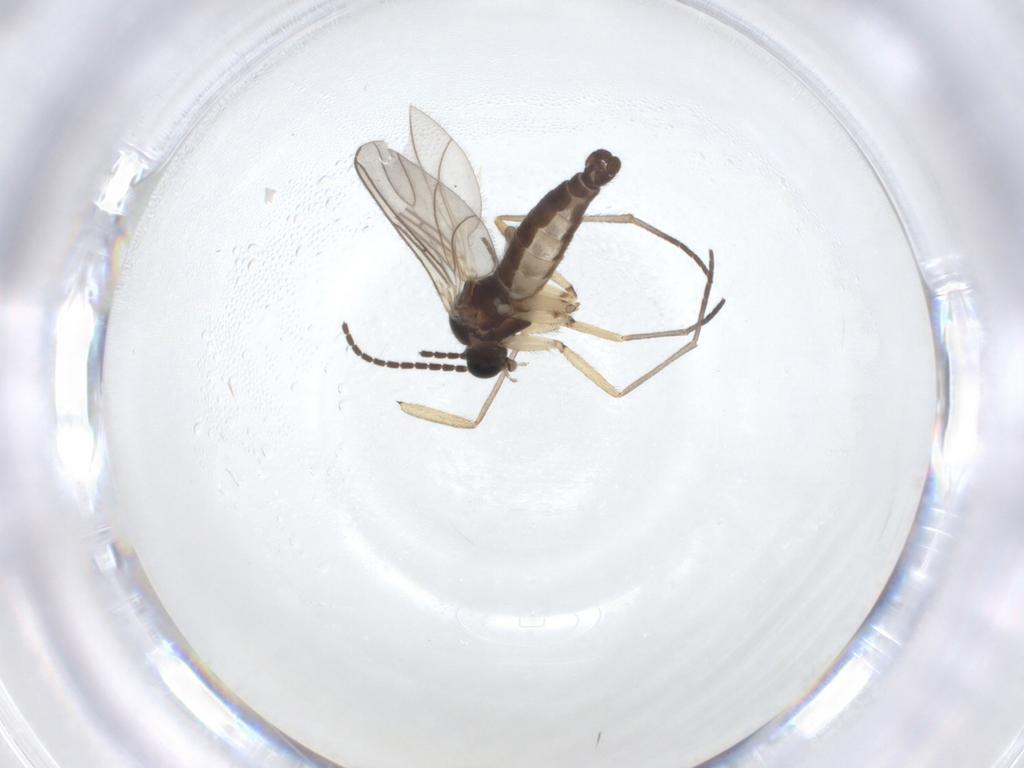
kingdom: Animalia
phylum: Arthropoda
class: Insecta
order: Diptera
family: Sciaridae
